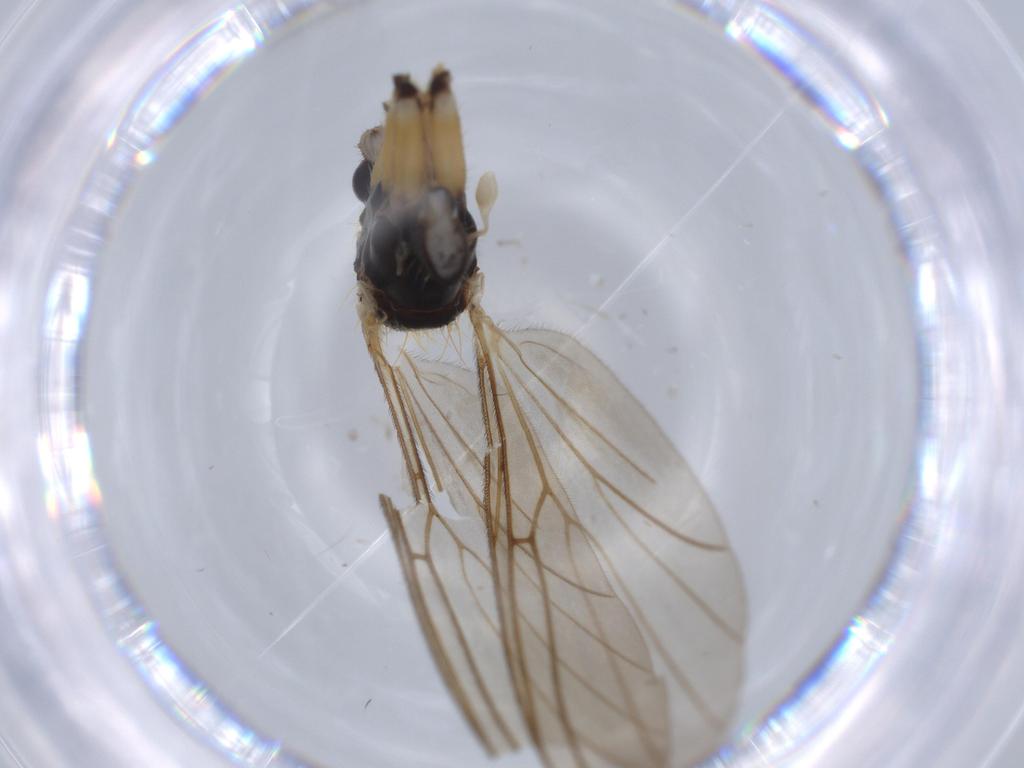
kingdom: Animalia
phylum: Arthropoda
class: Insecta
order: Diptera
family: Syrphidae
